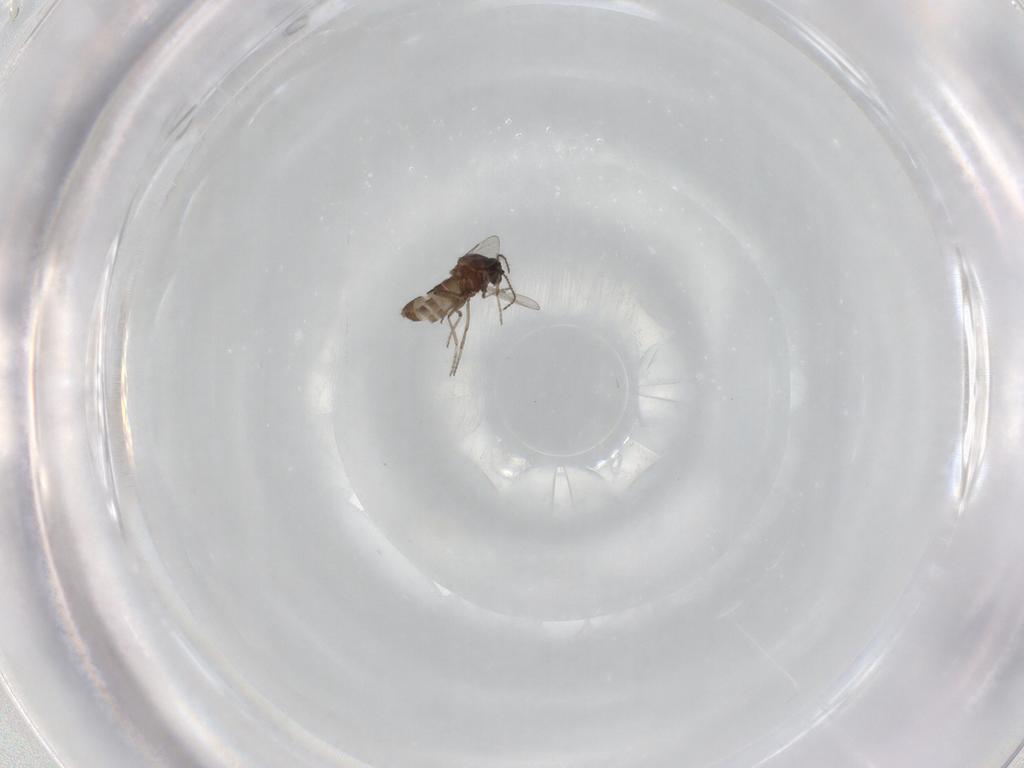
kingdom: Animalia
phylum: Arthropoda
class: Insecta
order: Diptera
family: Ceratopogonidae
